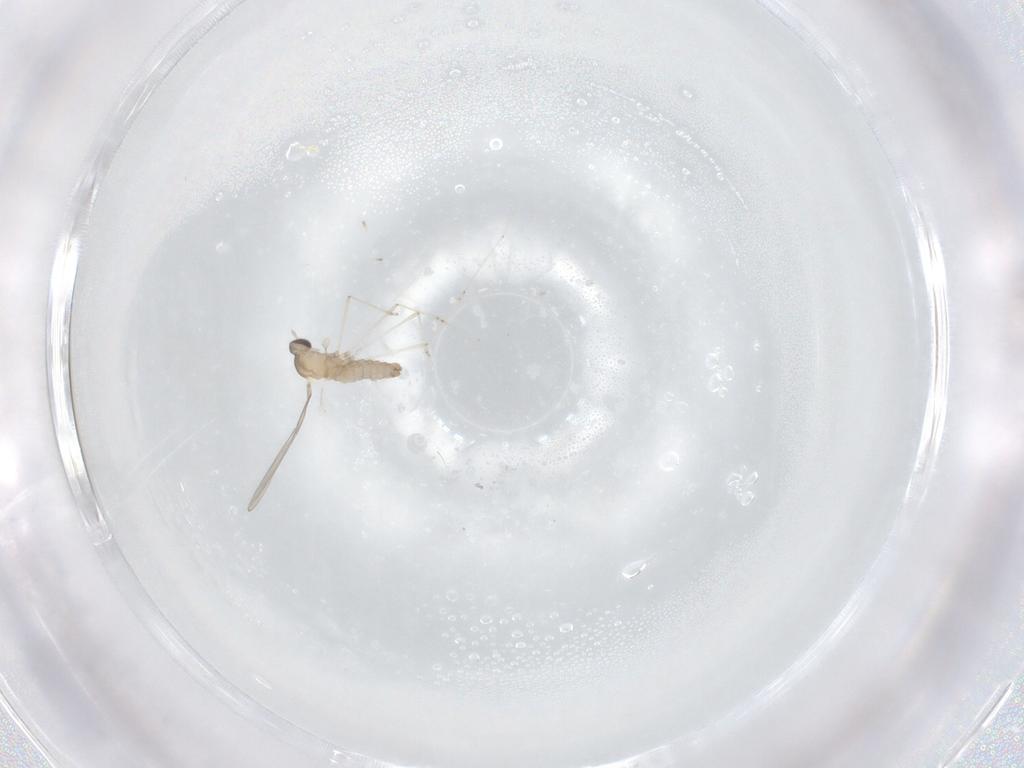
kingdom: Animalia
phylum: Arthropoda
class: Insecta
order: Diptera
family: Cecidomyiidae
